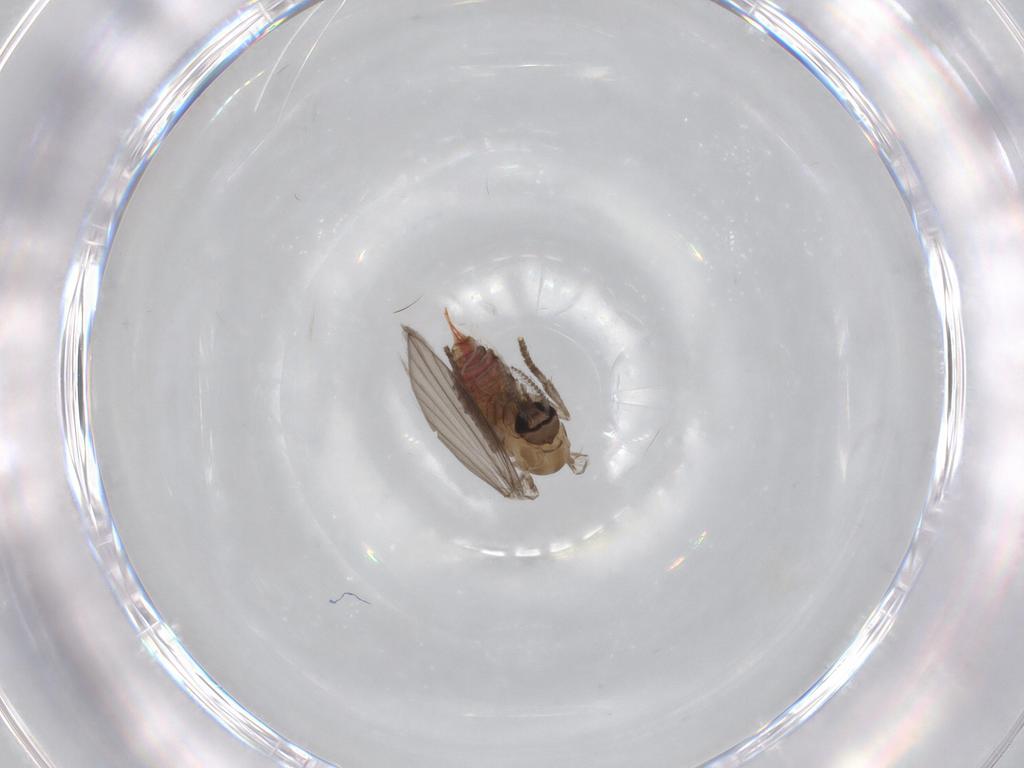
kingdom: Animalia
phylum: Arthropoda
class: Insecta
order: Diptera
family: Psychodidae
